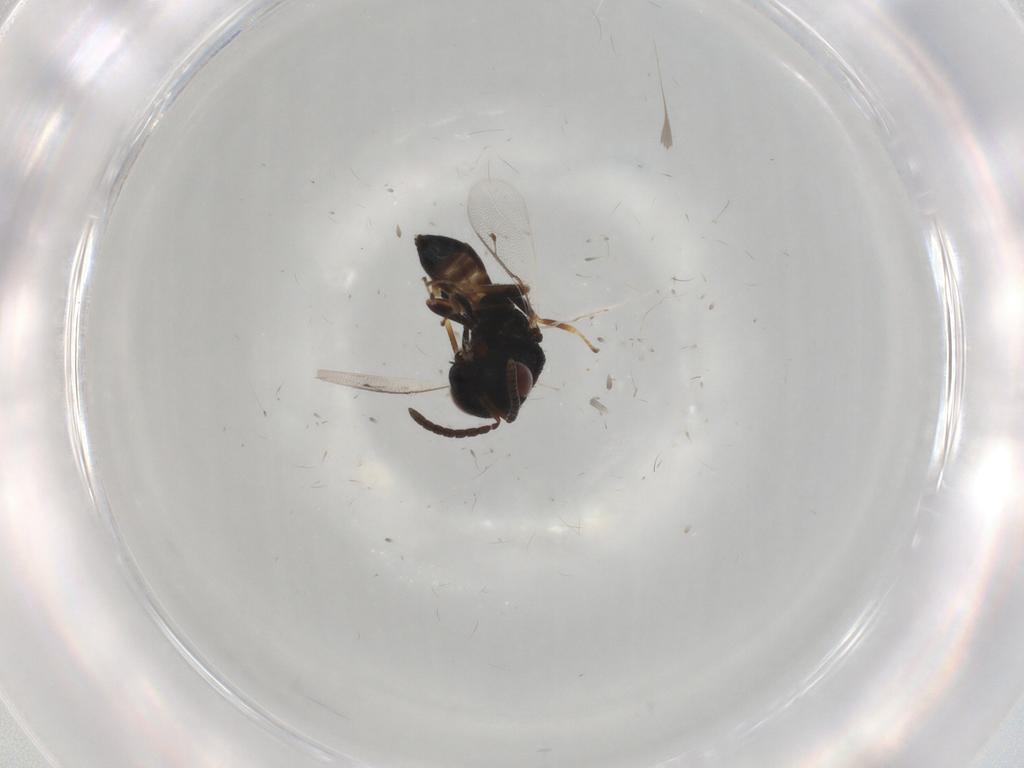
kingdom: Animalia
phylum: Arthropoda
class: Insecta
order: Hymenoptera
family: Pteromalidae
